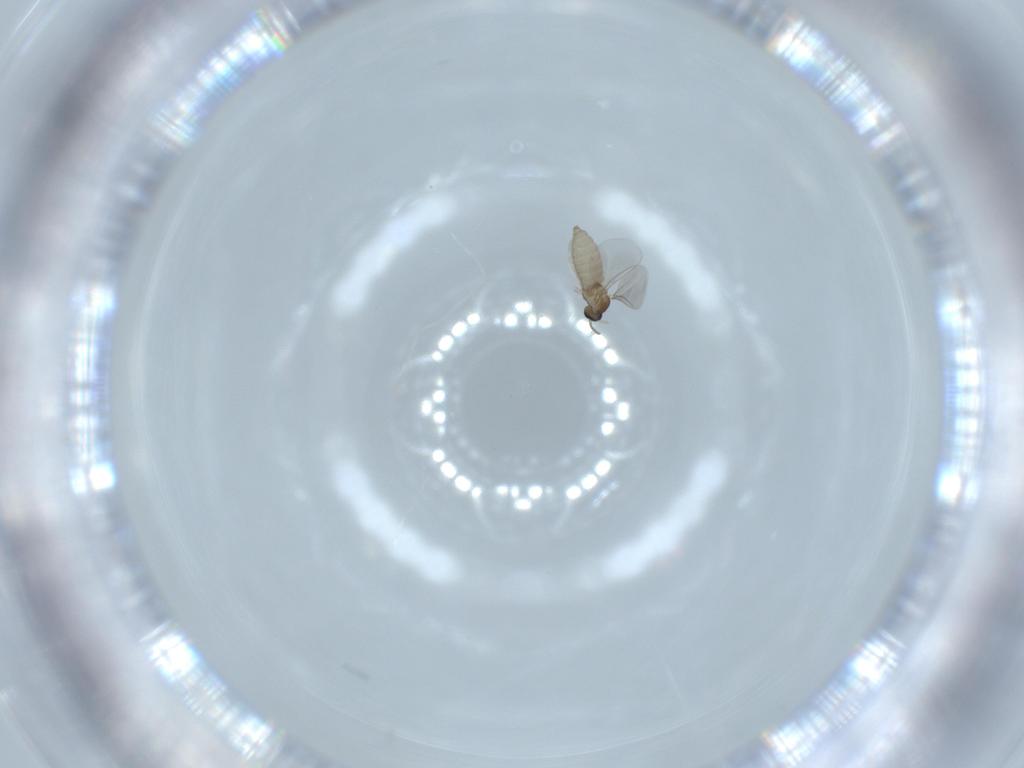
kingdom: Animalia
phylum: Arthropoda
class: Insecta
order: Diptera
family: Cecidomyiidae
